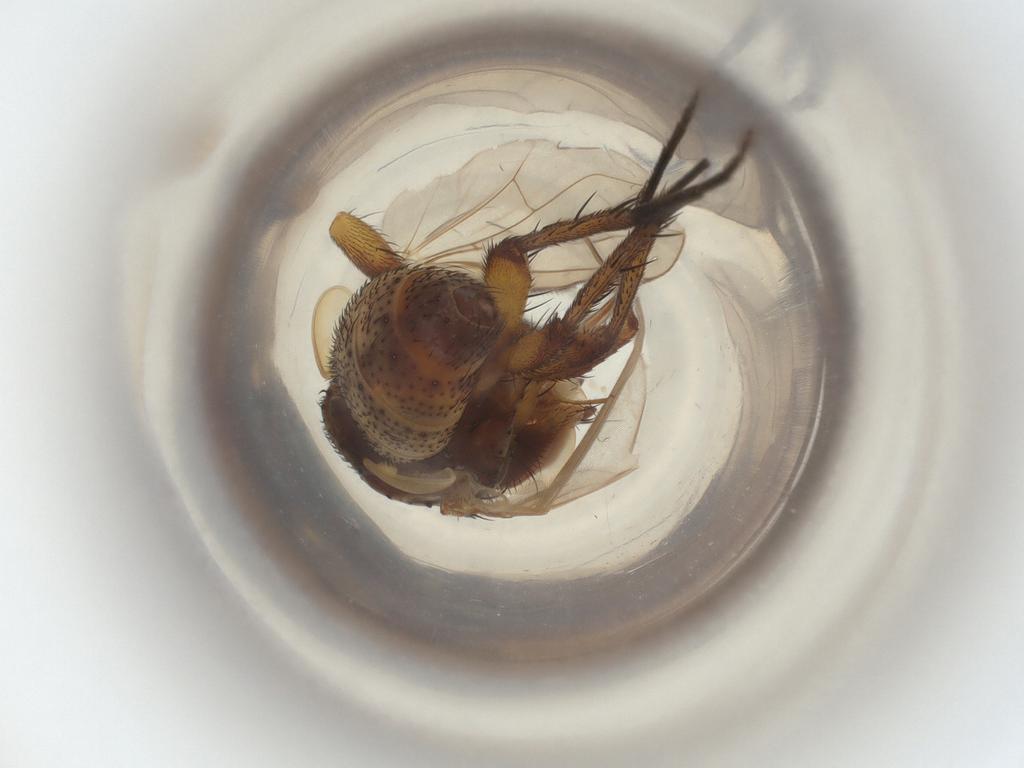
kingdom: Animalia
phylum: Arthropoda
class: Insecta
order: Diptera
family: Tachinidae
